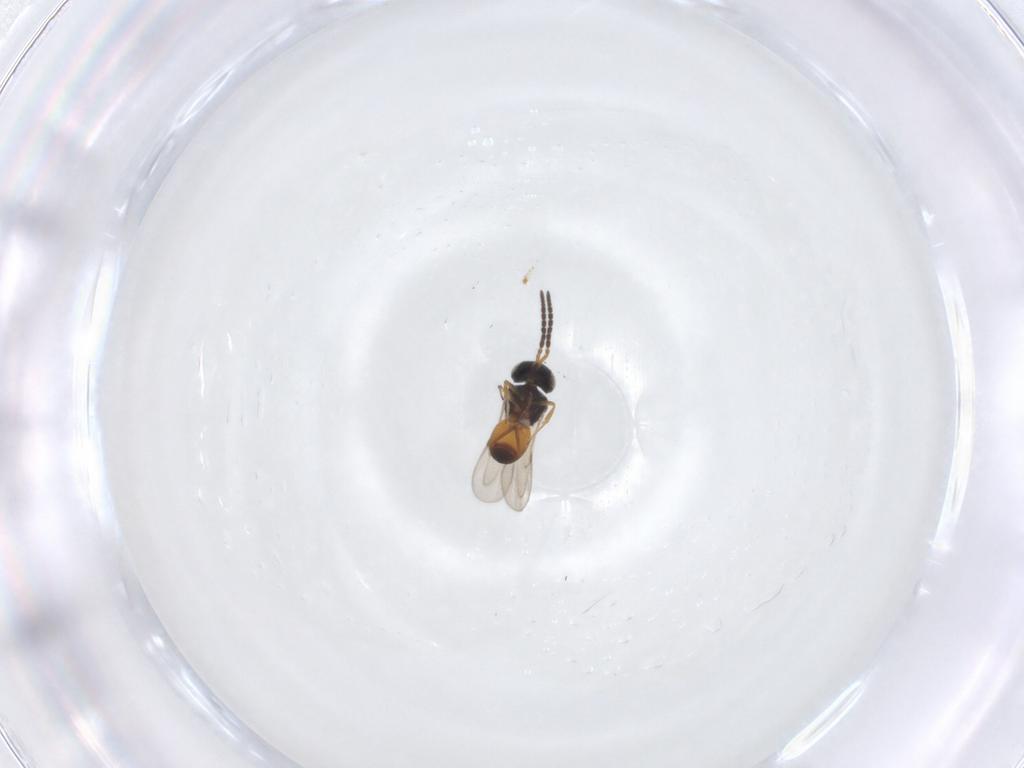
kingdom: Animalia
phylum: Arthropoda
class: Insecta
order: Hymenoptera
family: Scelionidae
